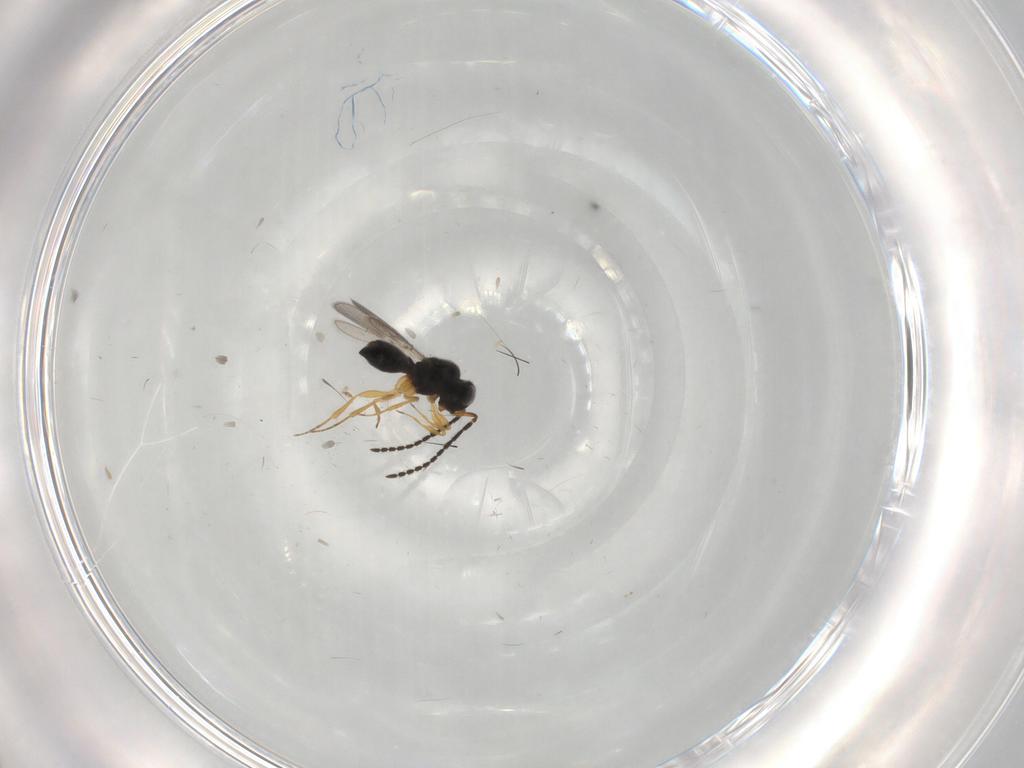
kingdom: Animalia
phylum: Arthropoda
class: Insecta
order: Hymenoptera
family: Scelionidae
